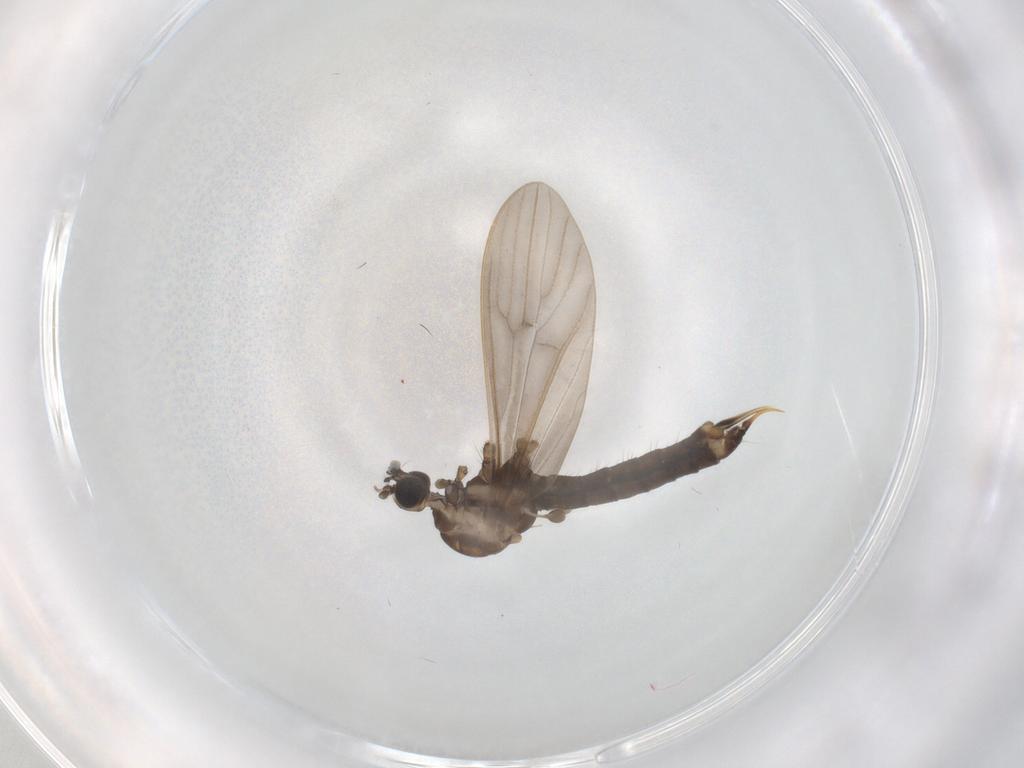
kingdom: Animalia
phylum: Arthropoda
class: Insecta
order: Diptera
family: Limoniidae
